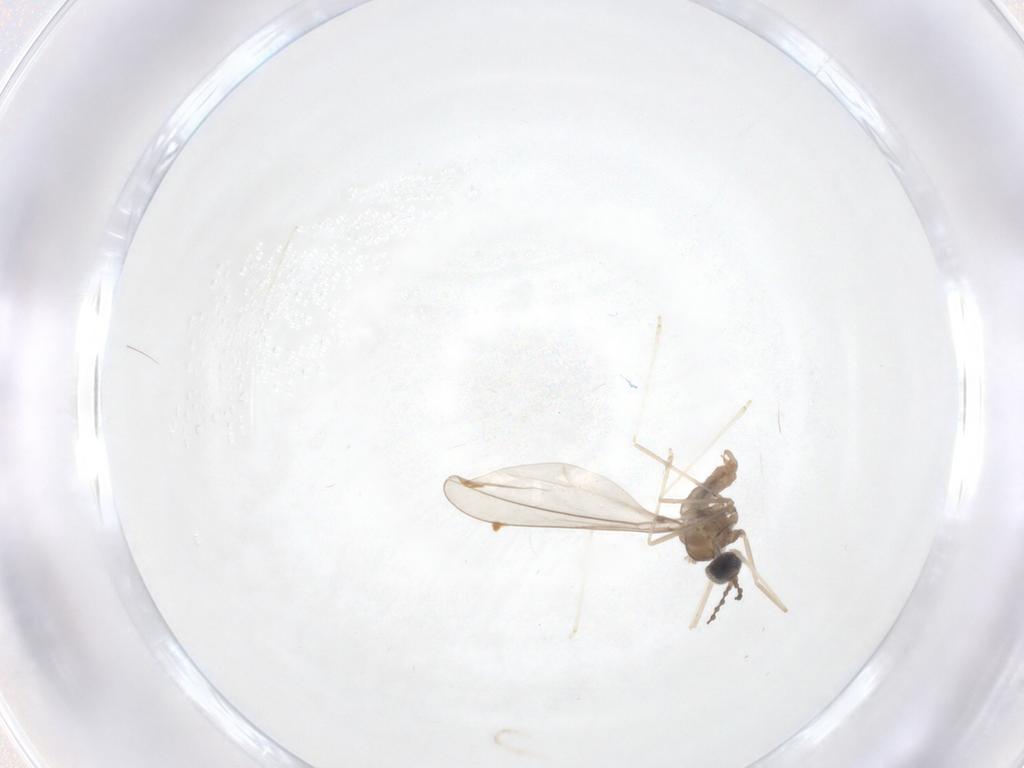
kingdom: Animalia
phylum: Arthropoda
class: Insecta
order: Diptera
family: Cecidomyiidae
